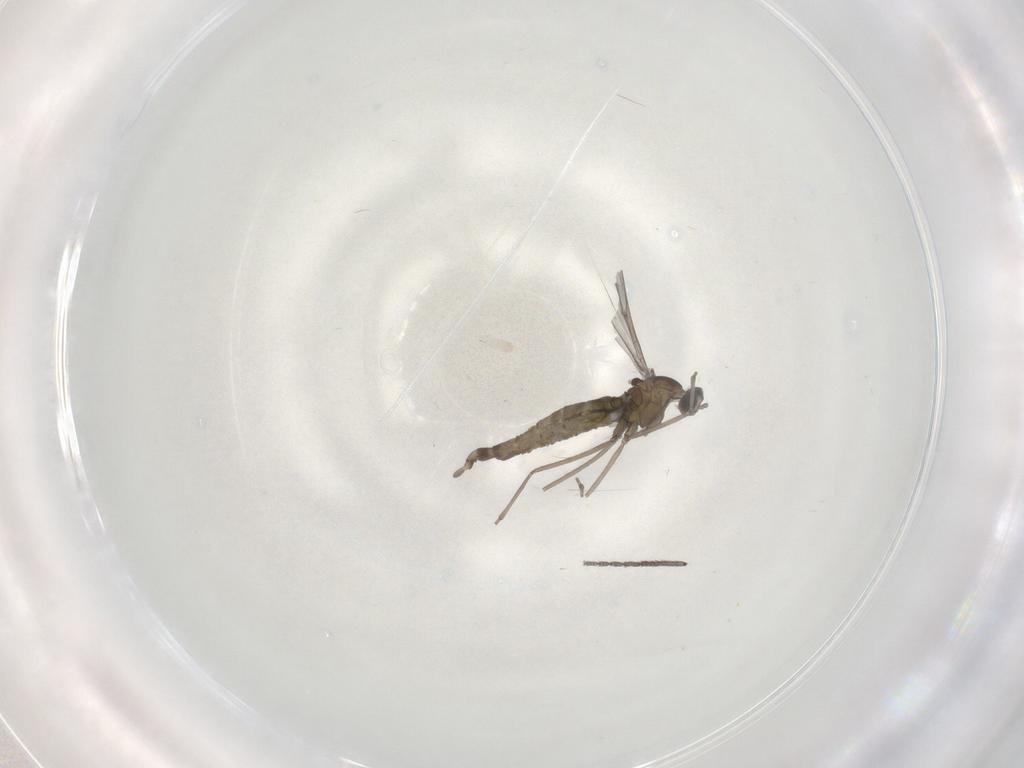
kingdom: Animalia
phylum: Arthropoda
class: Insecta
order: Diptera
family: Cecidomyiidae
